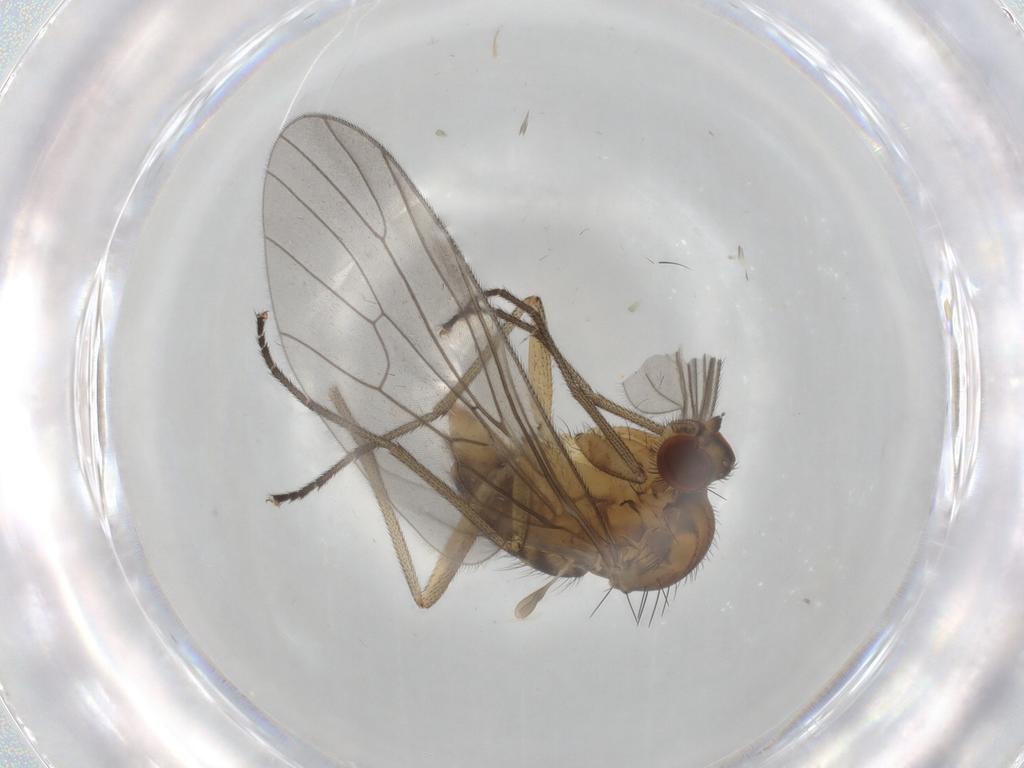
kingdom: Animalia
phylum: Arthropoda
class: Insecta
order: Diptera
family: Brachystomatidae
